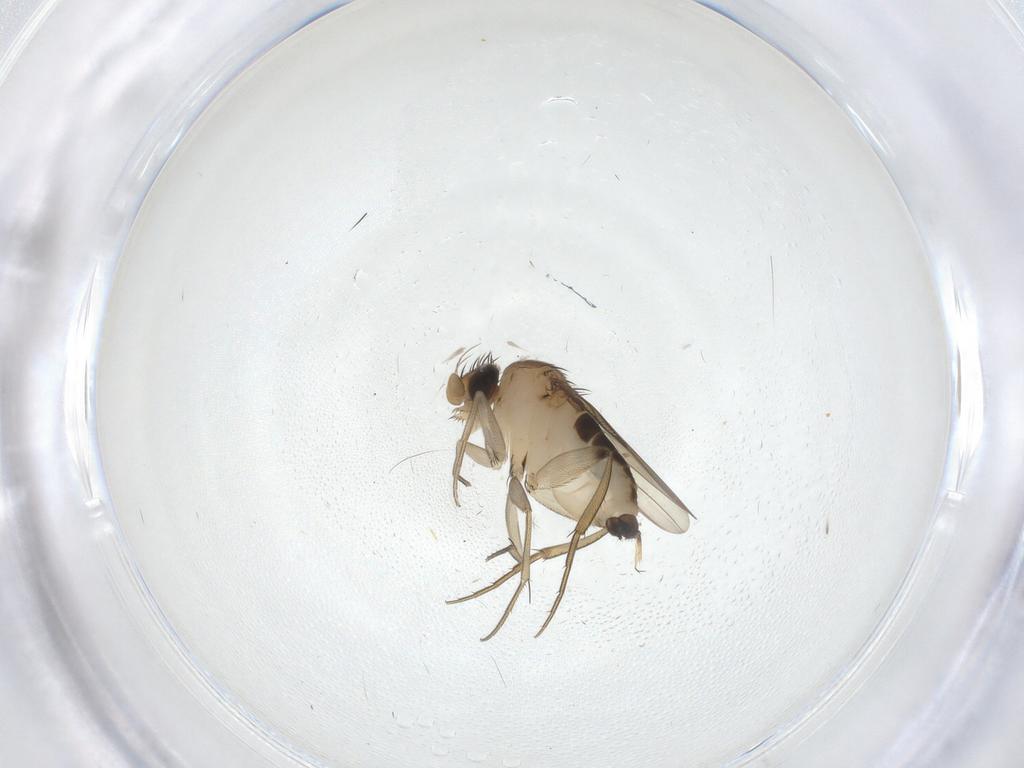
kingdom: Animalia
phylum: Arthropoda
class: Insecta
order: Diptera
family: Phoridae
